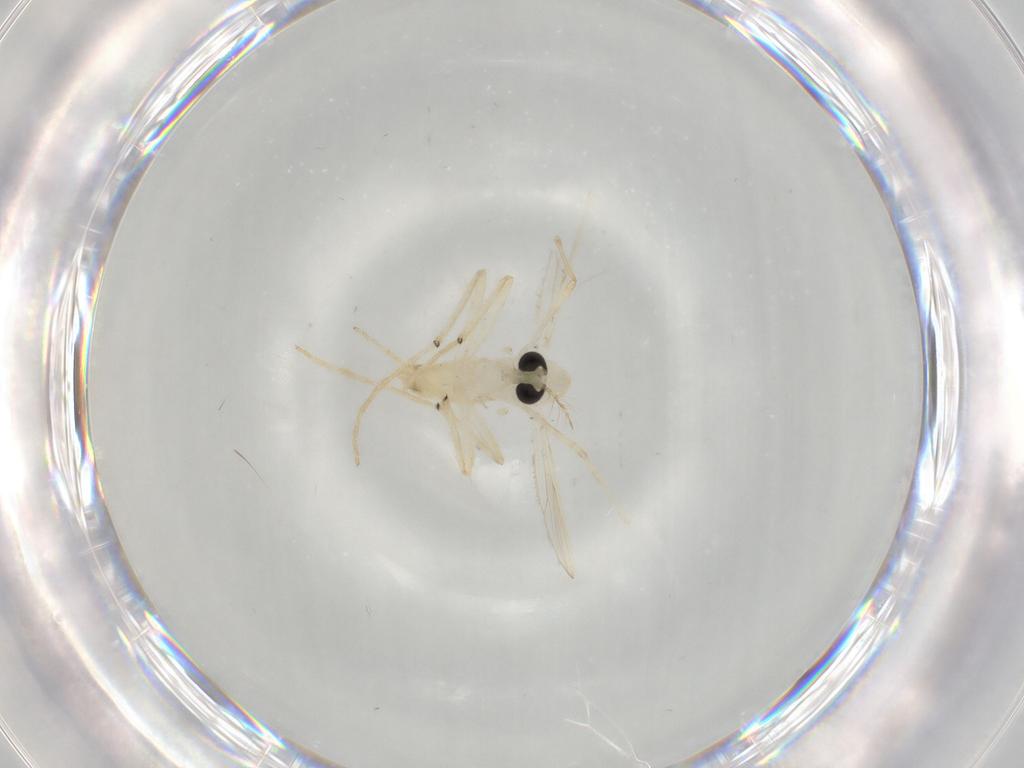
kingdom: Animalia
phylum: Arthropoda
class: Insecta
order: Diptera
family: Chironomidae
